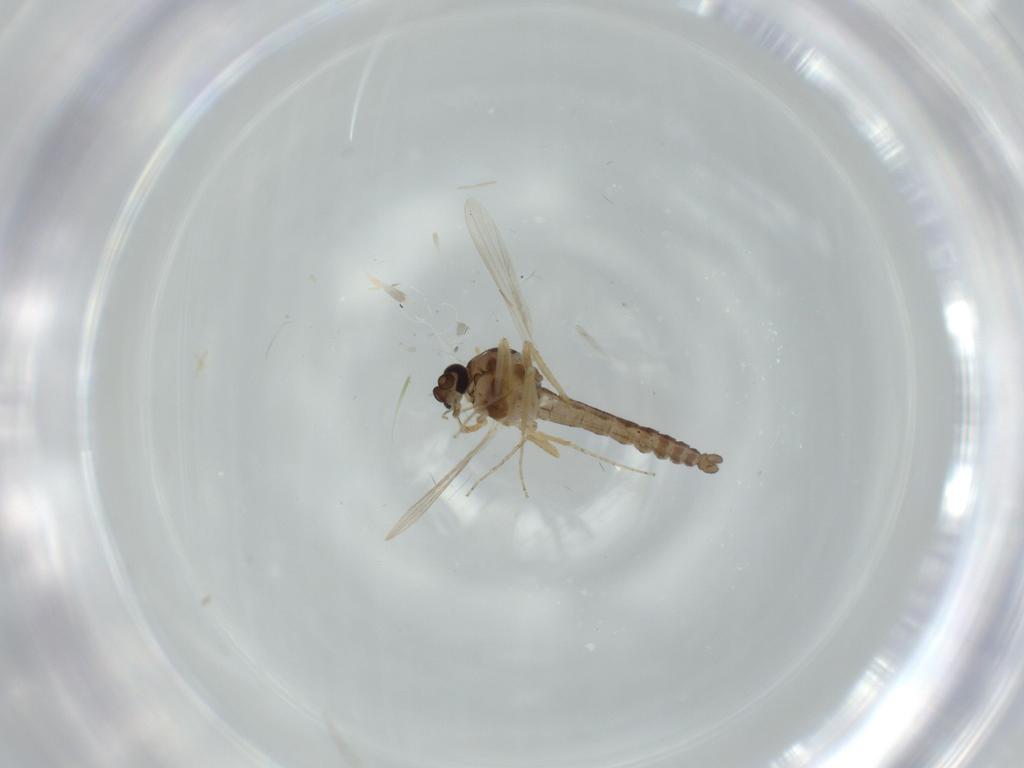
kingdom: Animalia
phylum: Arthropoda
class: Insecta
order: Diptera
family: Ceratopogonidae
